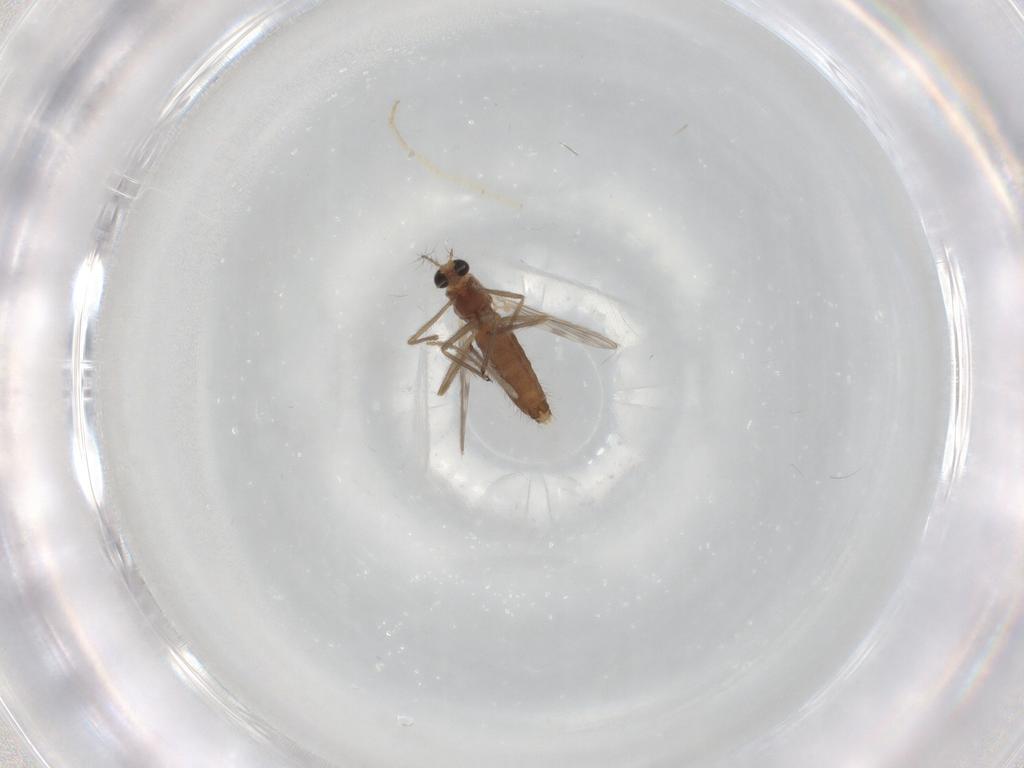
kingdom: Animalia
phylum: Arthropoda
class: Insecta
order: Diptera
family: Chironomidae
